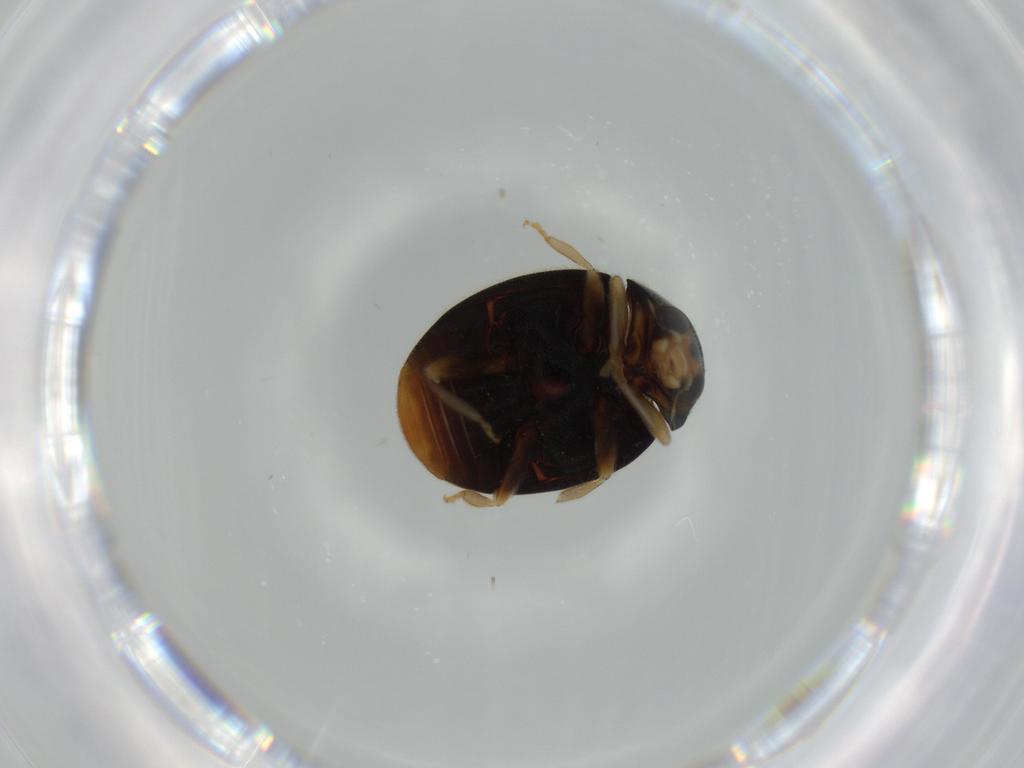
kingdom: Animalia
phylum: Arthropoda
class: Insecta
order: Coleoptera
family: Coccinellidae
